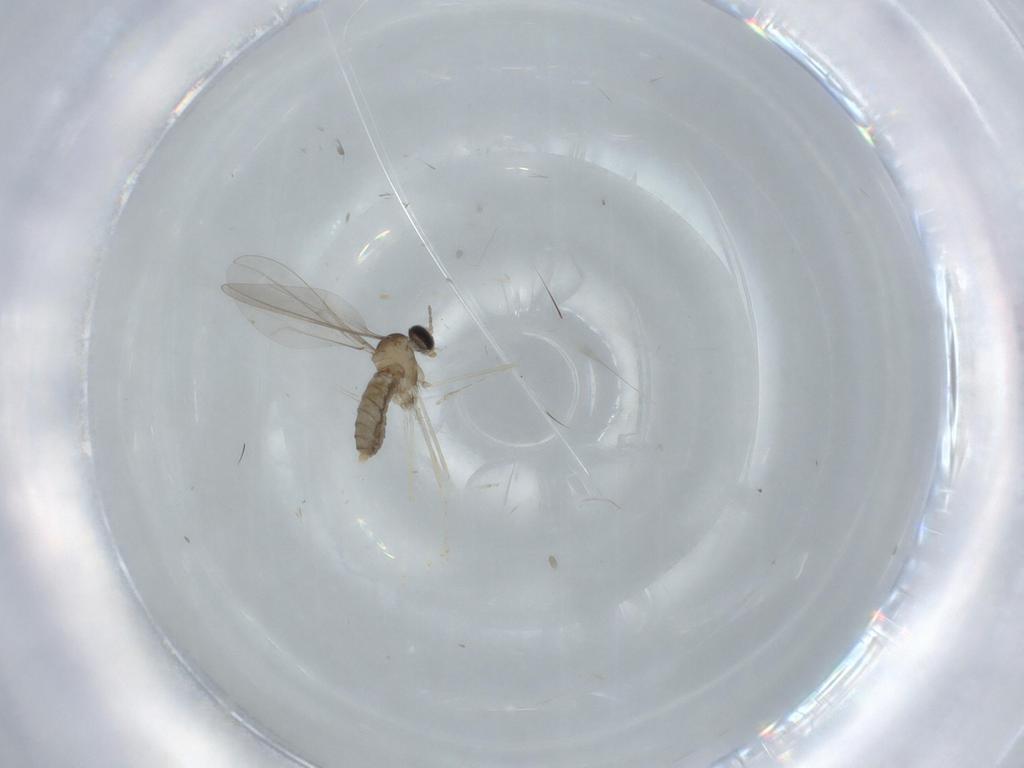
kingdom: Animalia
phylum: Arthropoda
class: Insecta
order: Diptera
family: Cecidomyiidae
